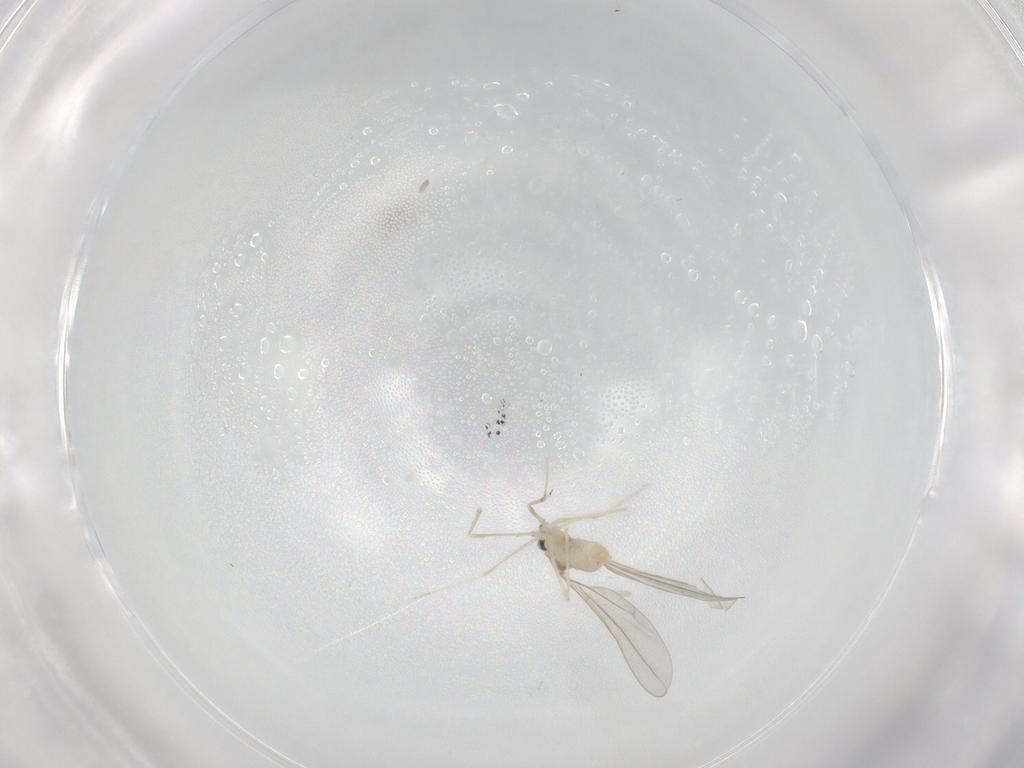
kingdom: Animalia
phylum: Arthropoda
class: Insecta
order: Diptera
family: Cecidomyiidae
